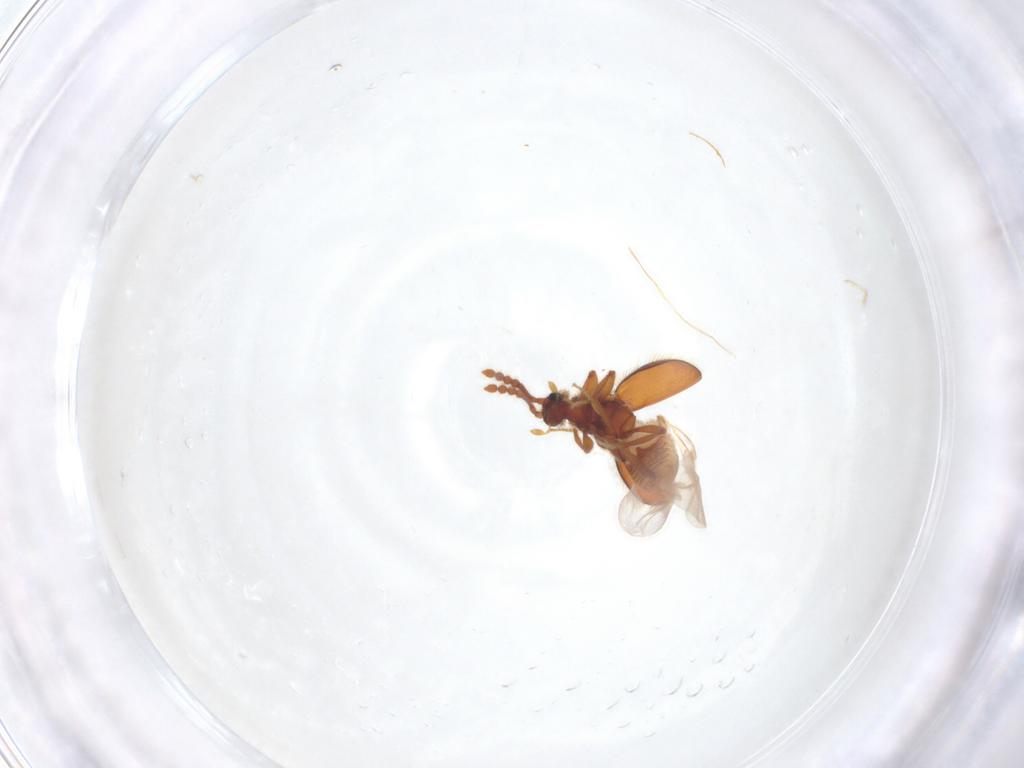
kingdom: Animalia
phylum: Arthropoda
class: Insecta
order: Coleoptera
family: Staphylinidae
